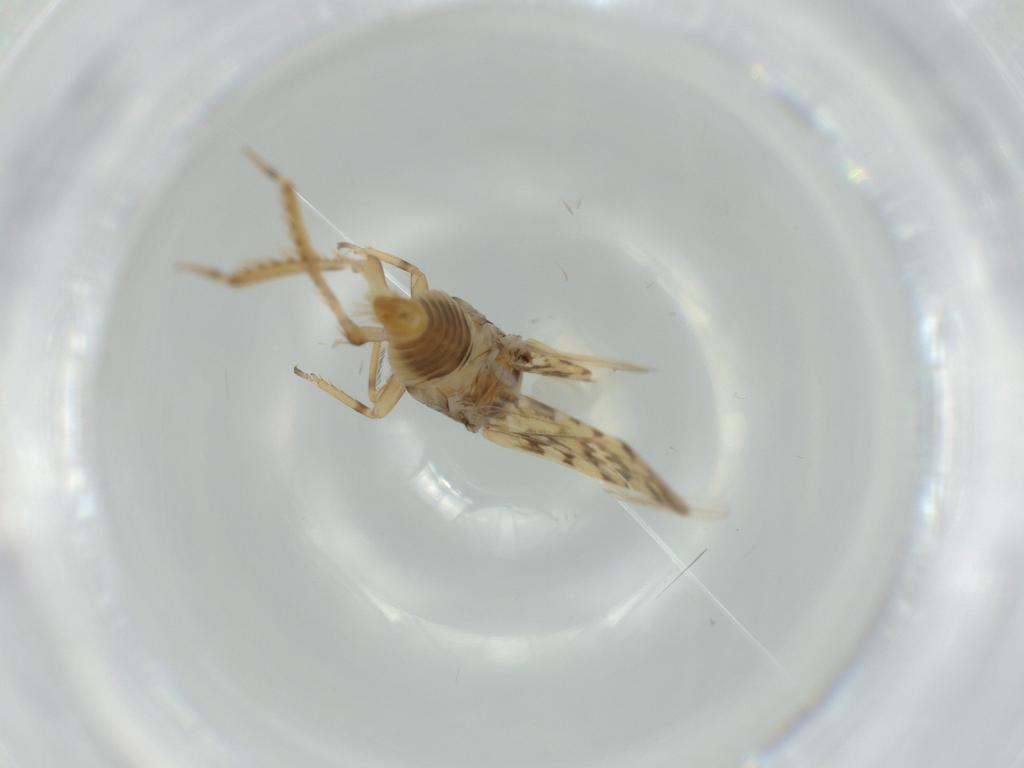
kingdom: Animalia
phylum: Arthropoda
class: Insecta
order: Hemiptera
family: Cicadellidae
